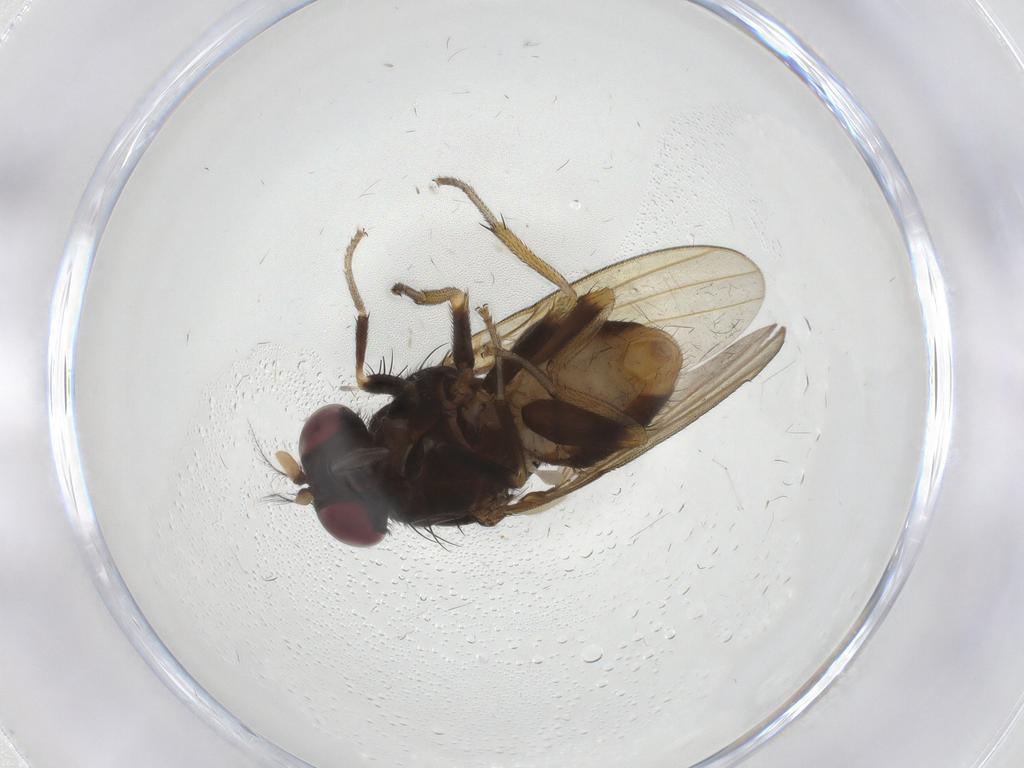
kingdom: Animalia
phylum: Arthropoda
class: Insecta
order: Diptera
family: Lauxaniidae
